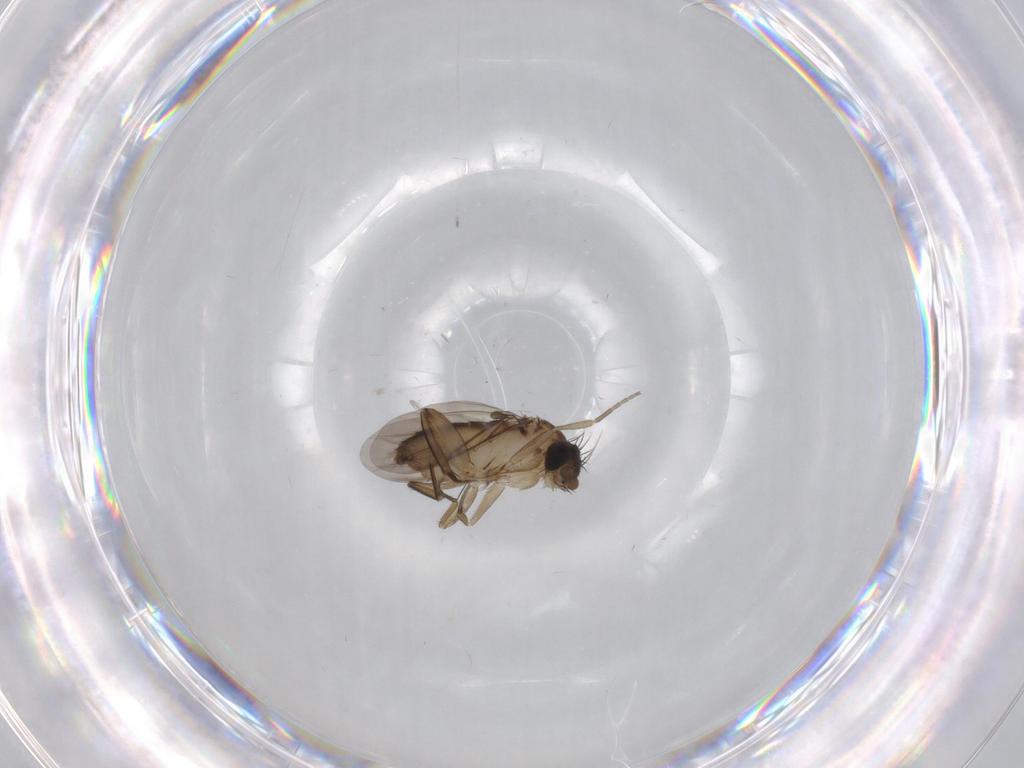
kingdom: Animalia
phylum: Arthropoda
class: Insecta
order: Diptera
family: Phoridae
